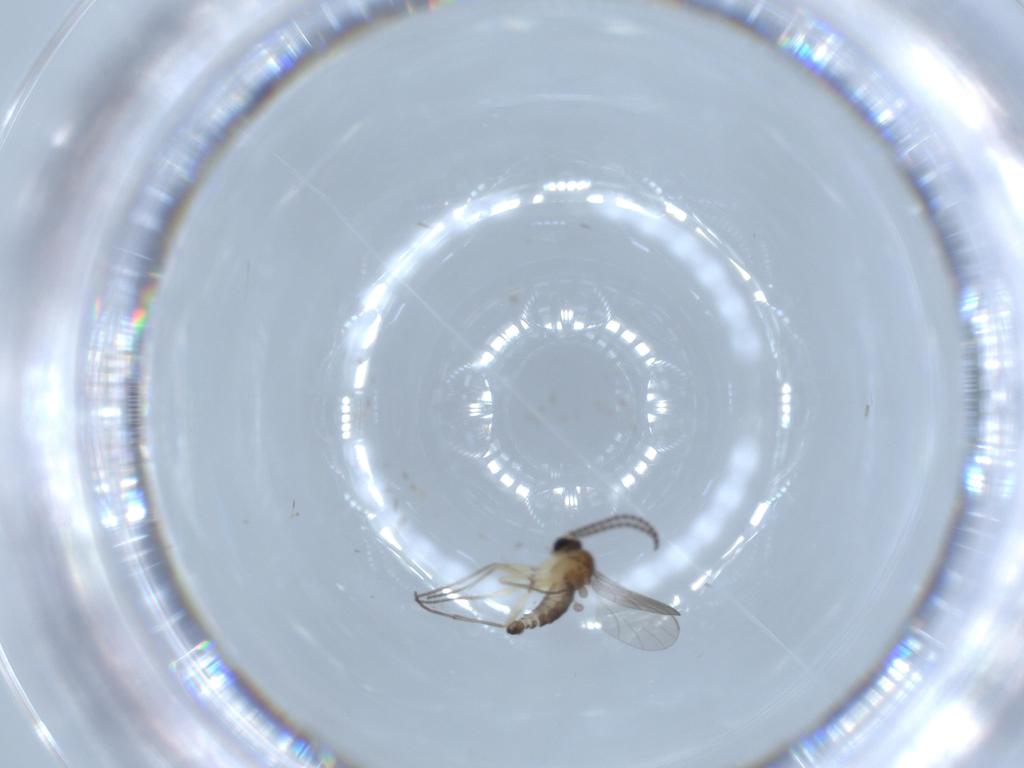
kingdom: Animalia
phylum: Arthropoda
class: Insecta
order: Diptera
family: Sciaridae
